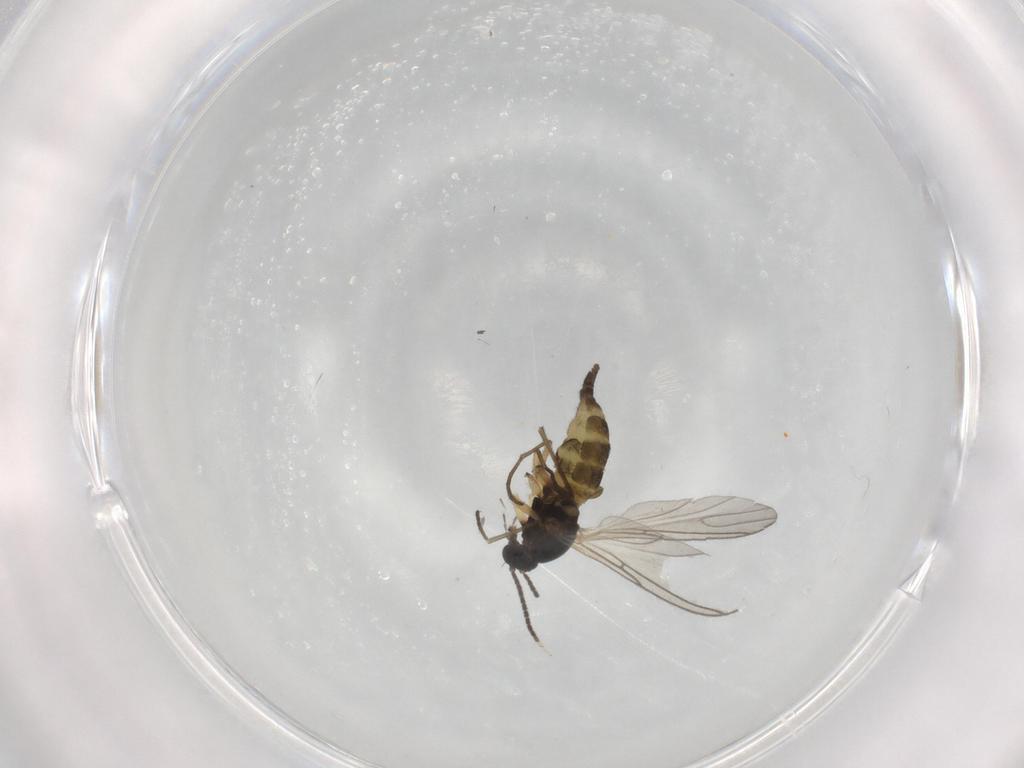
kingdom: Animalia
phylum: Arthropoda
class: Insecta
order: Diptera
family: Sciaridae
